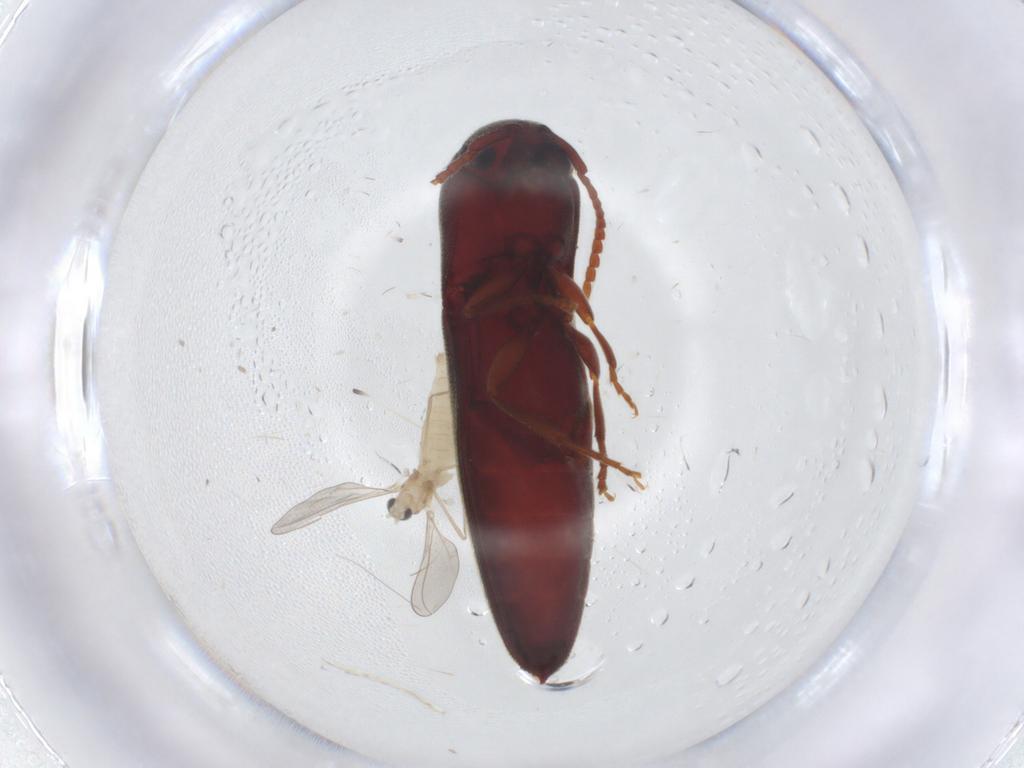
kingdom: Animalia
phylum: Arthropoda
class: Insecta
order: Diptera
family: Cecidomyiidae
